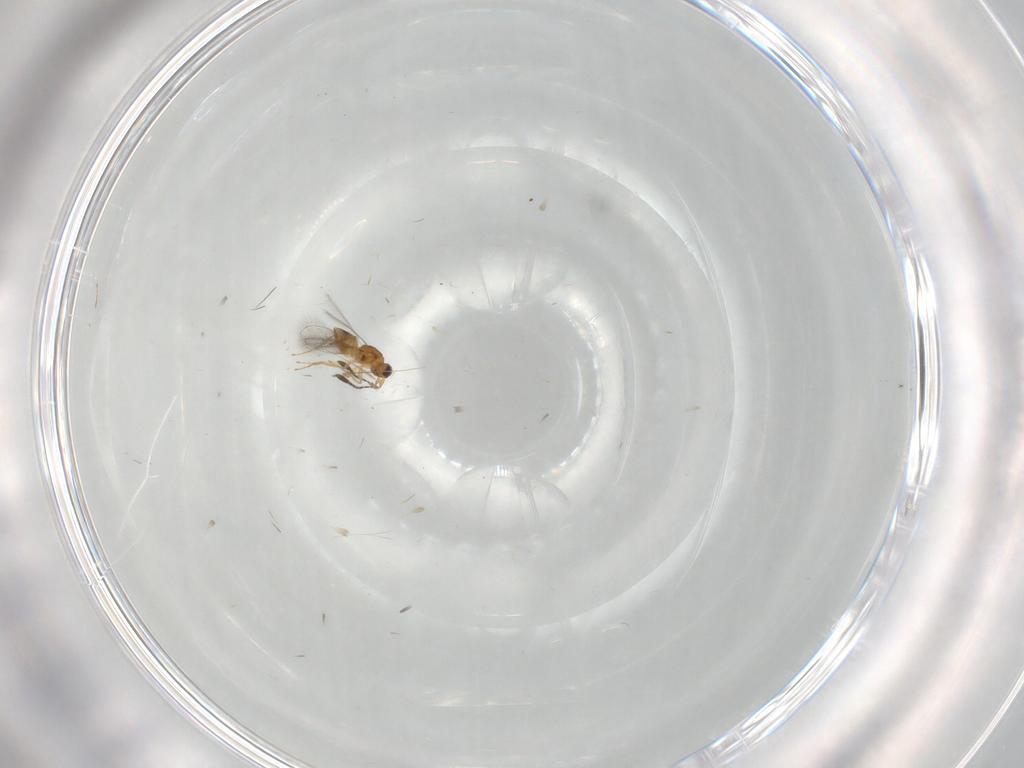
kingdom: Animalia
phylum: Arthropoda
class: Insecta
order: Hymenoptera
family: Mymaridae
